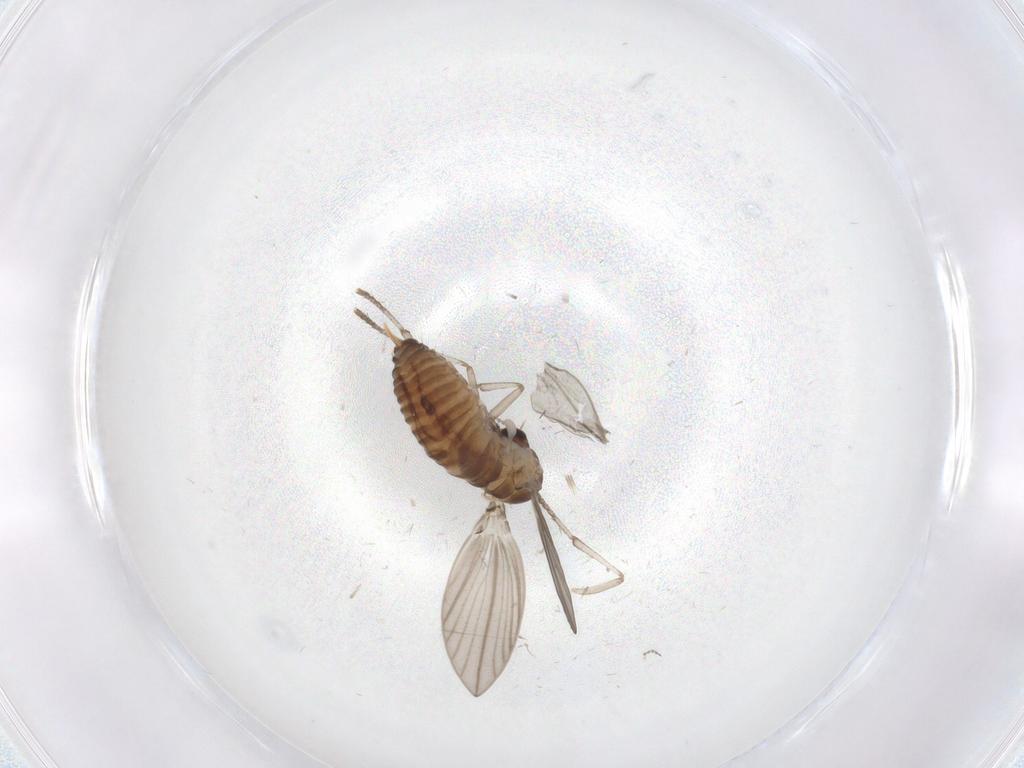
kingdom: Animalia
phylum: Arthropoda
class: Insecta
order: Diptera
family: Psychodidae
